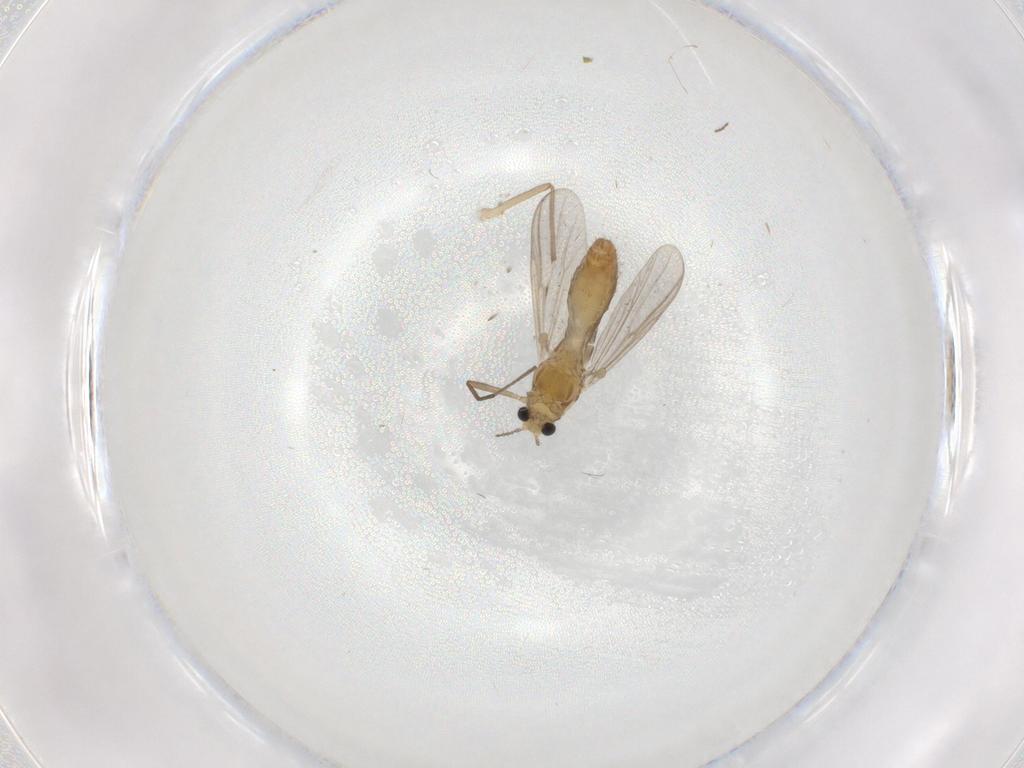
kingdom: Animalia
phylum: Arthropoda
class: Insecta
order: Diptera
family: Chironomidae
